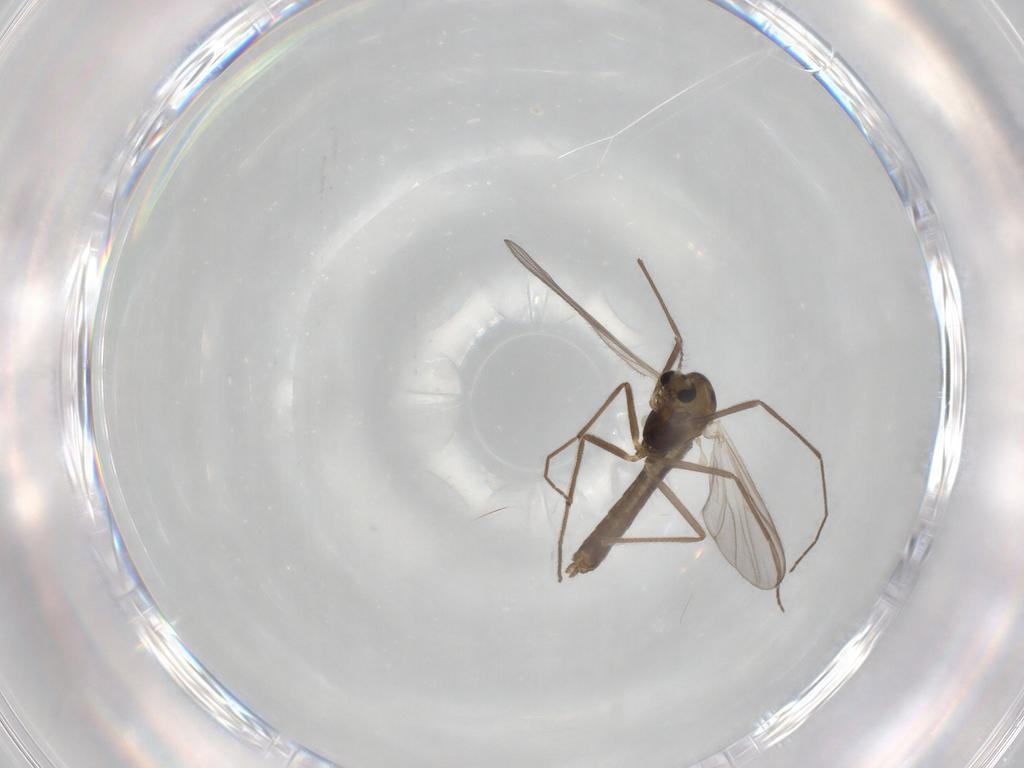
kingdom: Animalia
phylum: Arthropoda
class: Insecta
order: Diptera
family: Chironomidae
